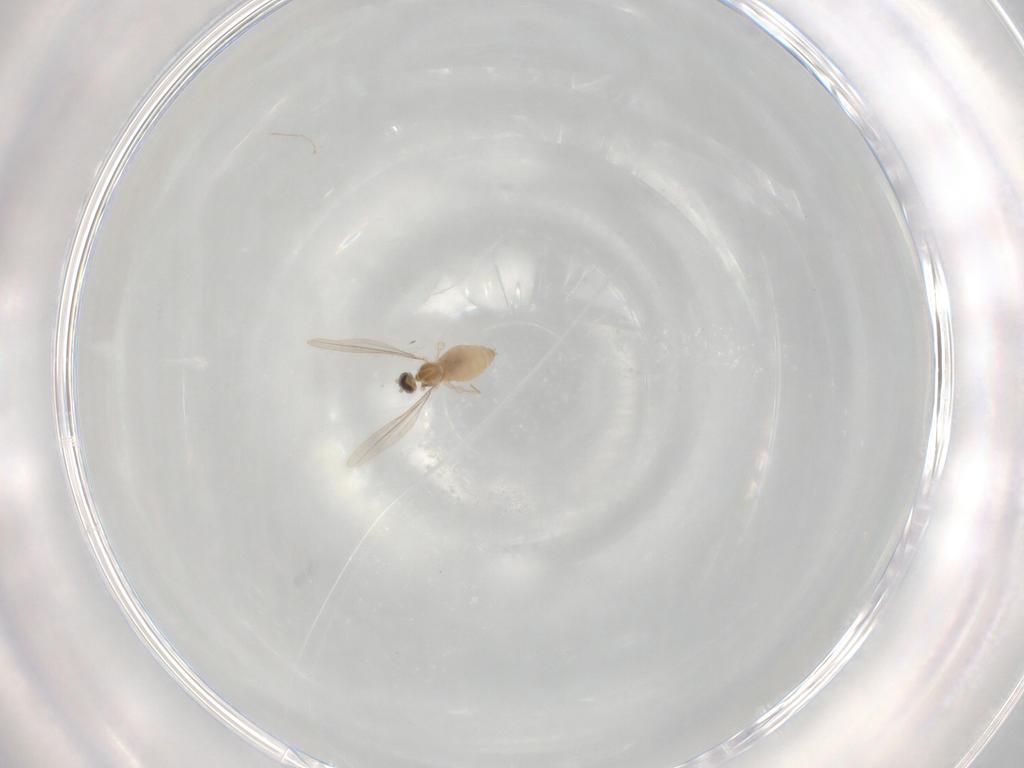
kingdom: Animalia
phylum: Arthropoda
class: Insecta
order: Diptera
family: Cecidomyiidae
